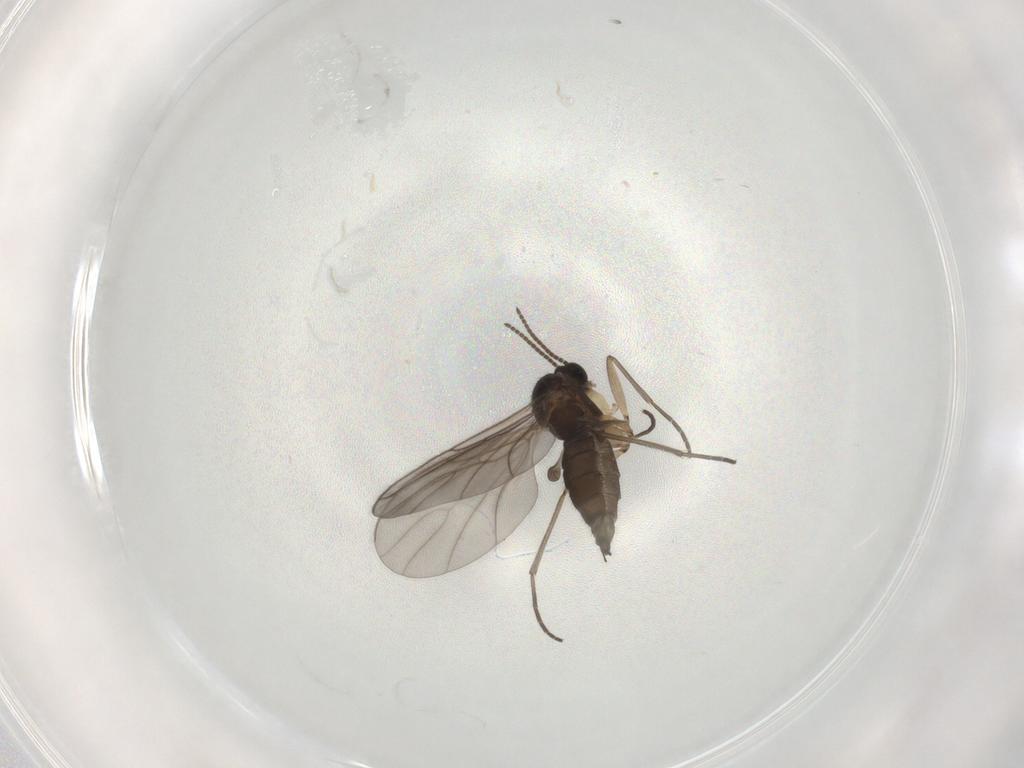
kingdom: Animalia
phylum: Arthropoda
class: Insecta
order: Diptera
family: Sciaridae
